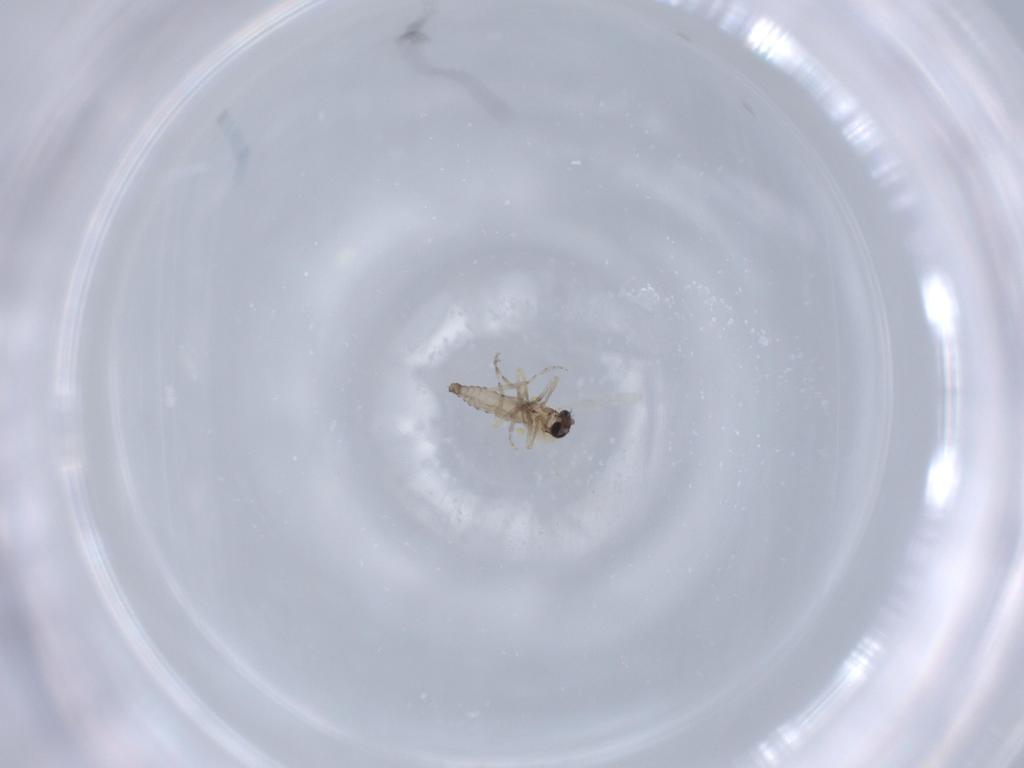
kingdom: Animalia
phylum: Arthropoda
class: Insecta
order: Diptera
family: Ceratopogonidae
